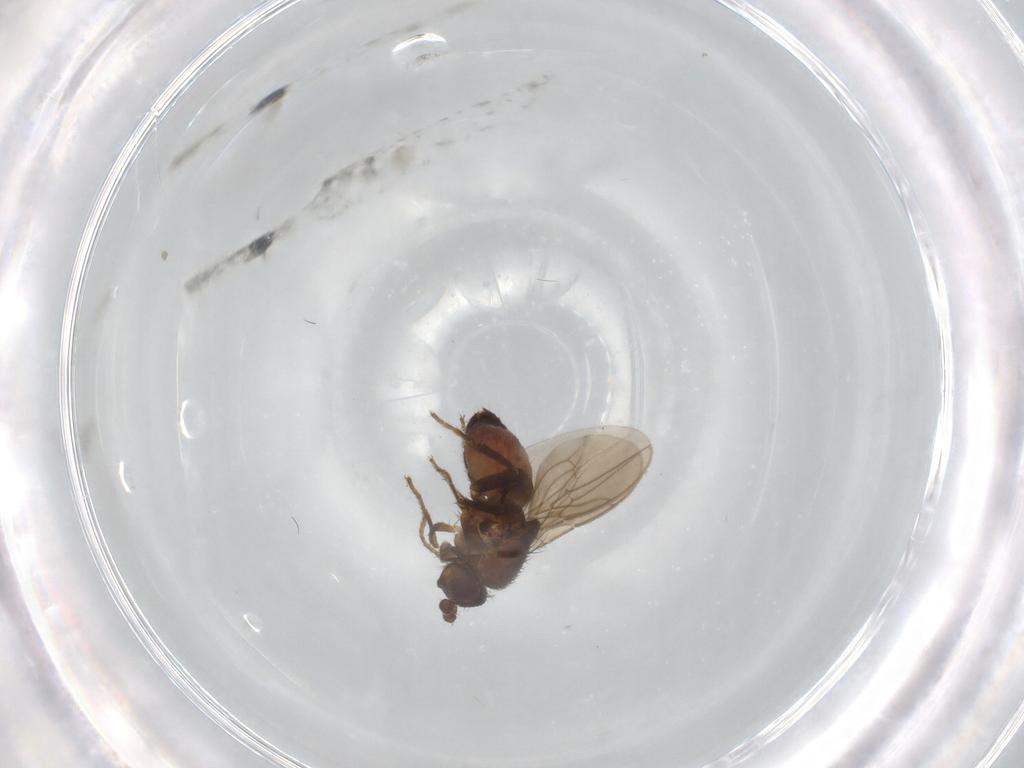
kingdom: Animalia
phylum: Arthropoda
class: Insecta
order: Diptera
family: Sphaeroceridae
